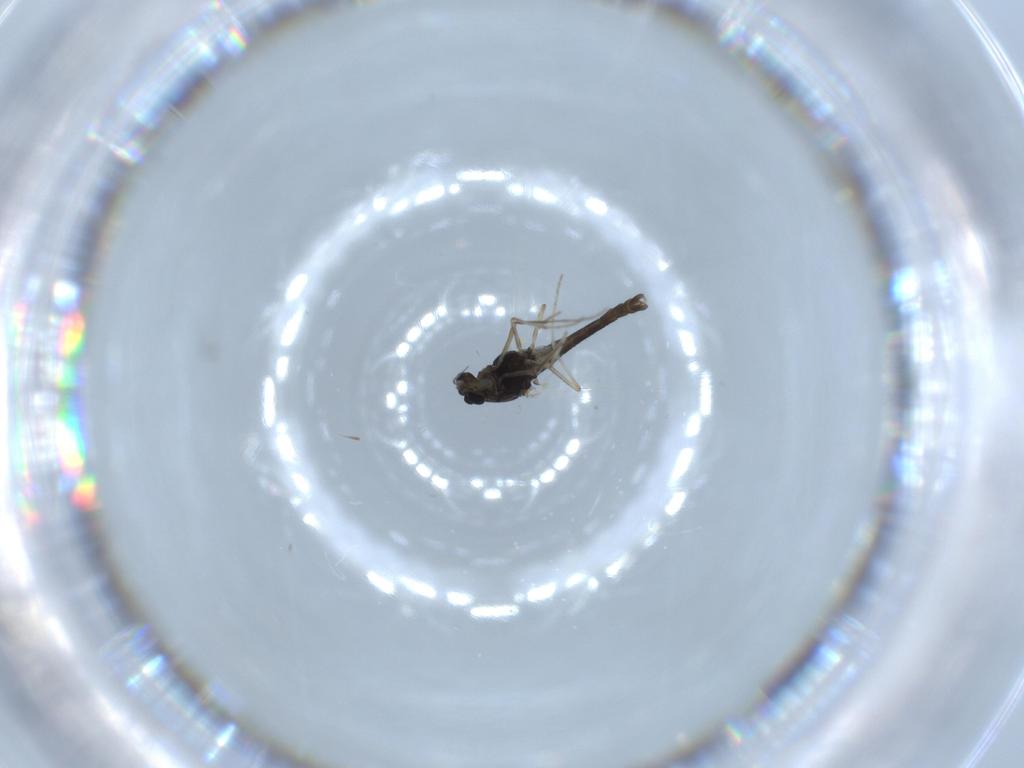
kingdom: Animalia
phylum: Arthropoda
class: Insecta
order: Diptera
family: Chironomidae
